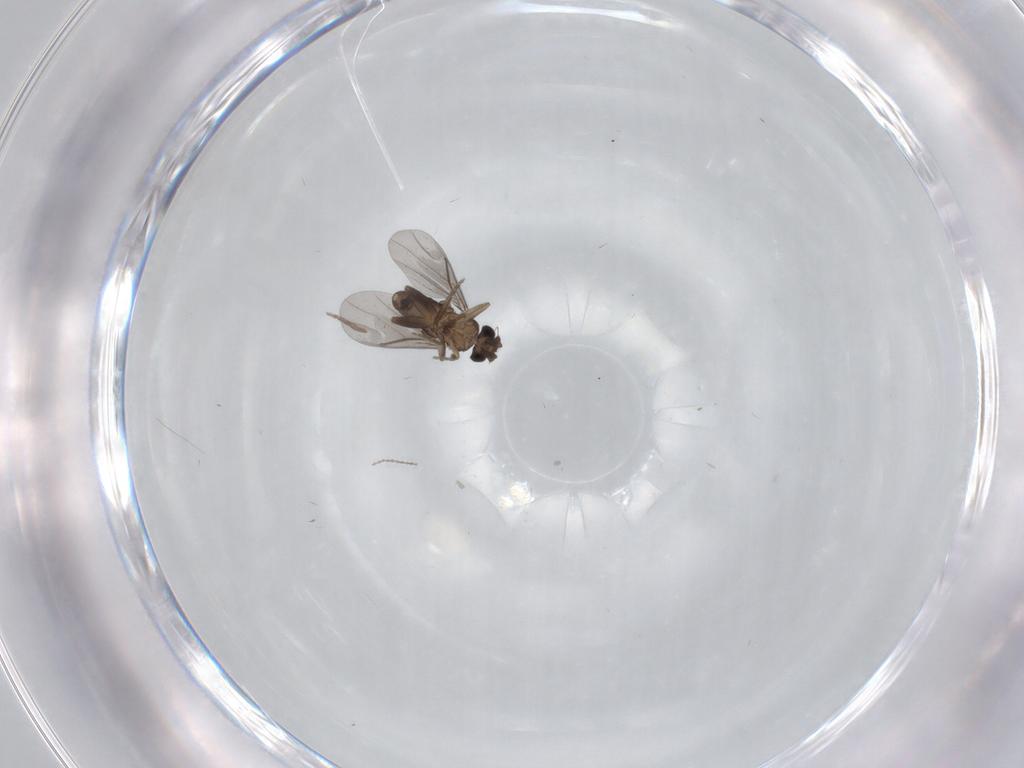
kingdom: Animalia
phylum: Arthropoda
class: Insecta
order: Diptera
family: Cecidomyiidae
